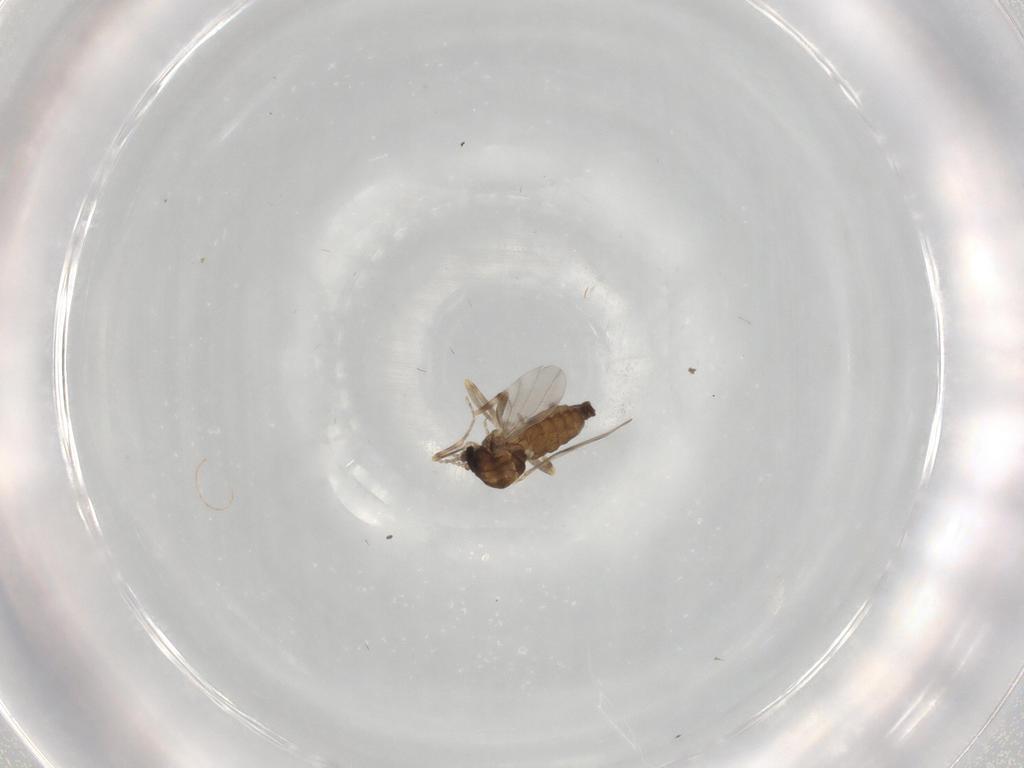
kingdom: Animalia
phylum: Arthropoda
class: Insecta
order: Diptera
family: Ceratopogonidae
